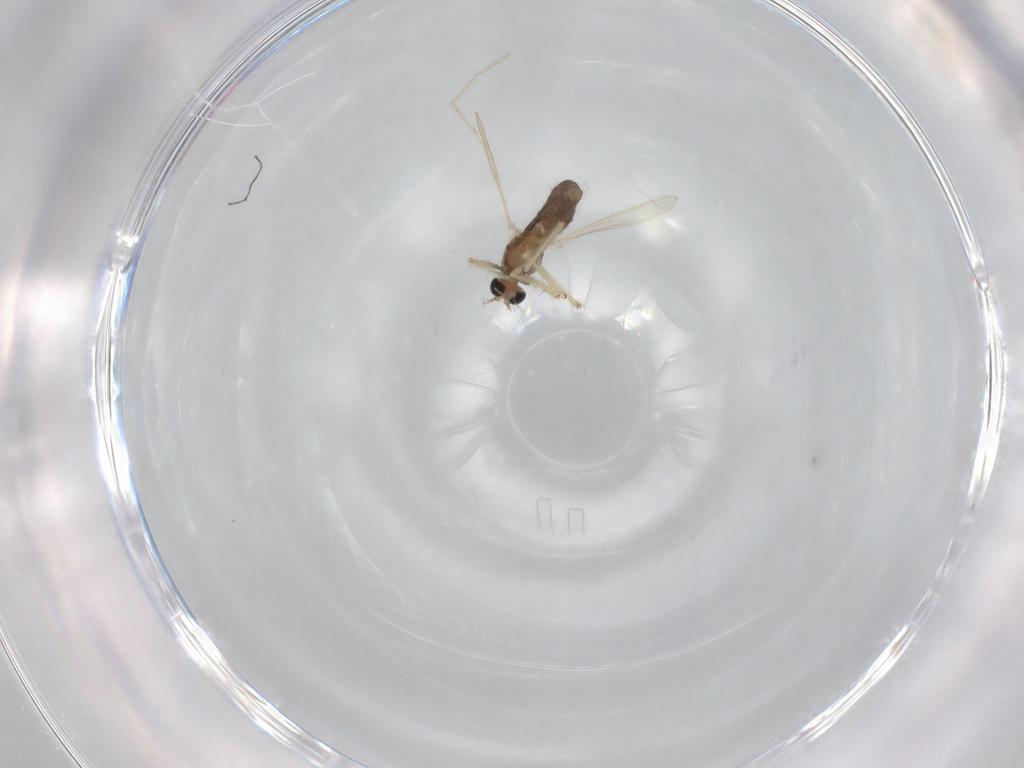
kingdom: Animalia
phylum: Arthropoda
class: Insecta
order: Diptera
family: Chironomidae
